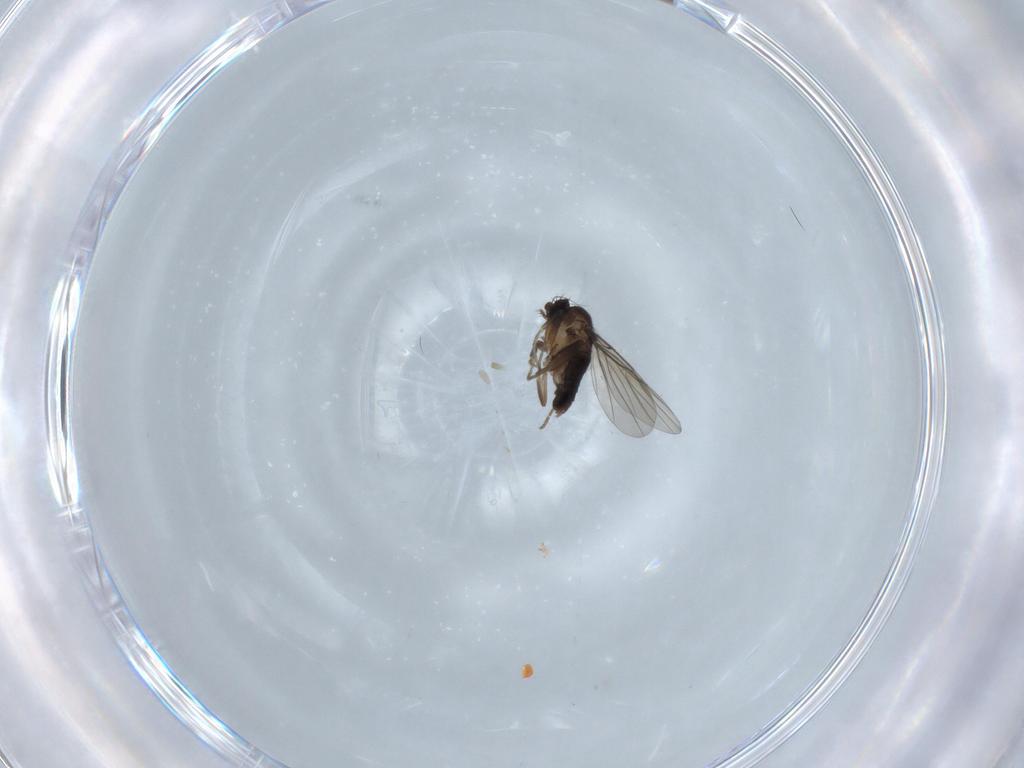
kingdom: Animalia
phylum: Arthropoda
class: Insecta
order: Diptera
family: Phoridae
